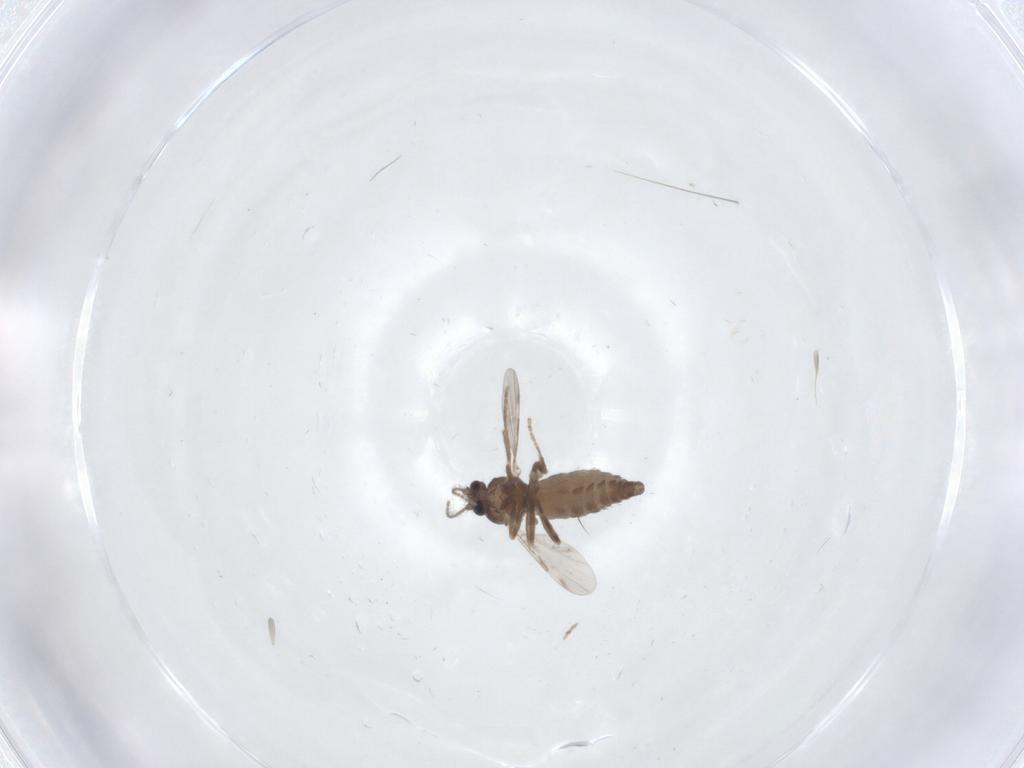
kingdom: Animalia
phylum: Arthropoda
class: Insecta
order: Diptera
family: Ceratopogonidae
